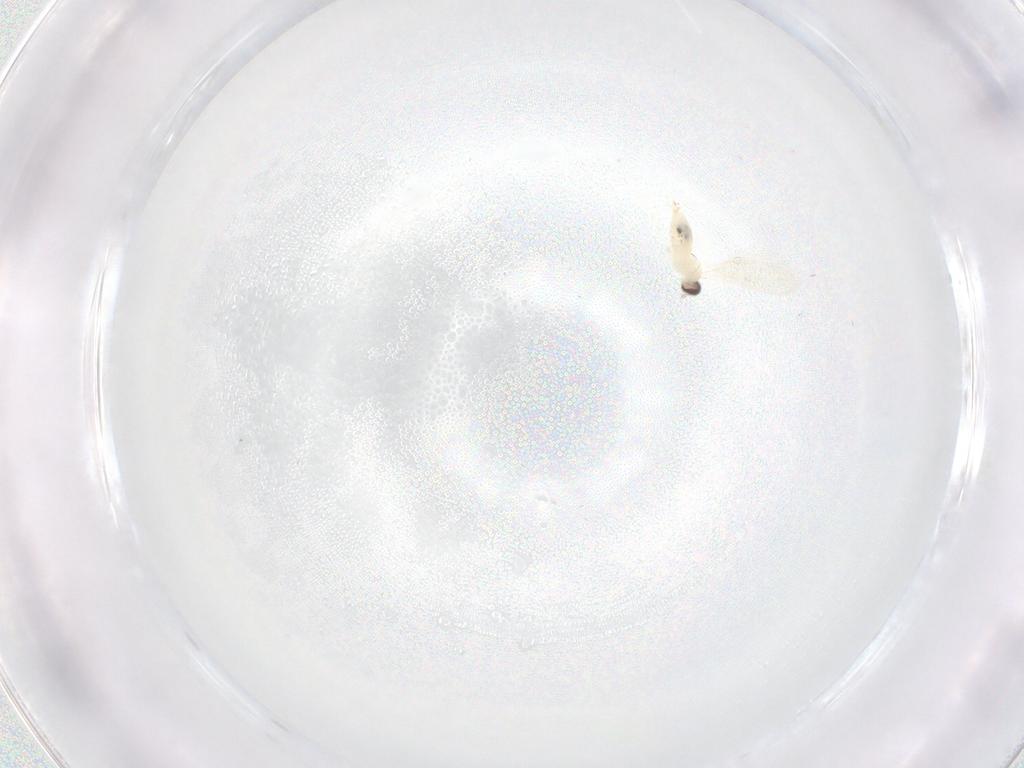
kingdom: Animalia
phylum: Arthropoda
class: Insecta
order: Diptera
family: Cecidomyiidae
